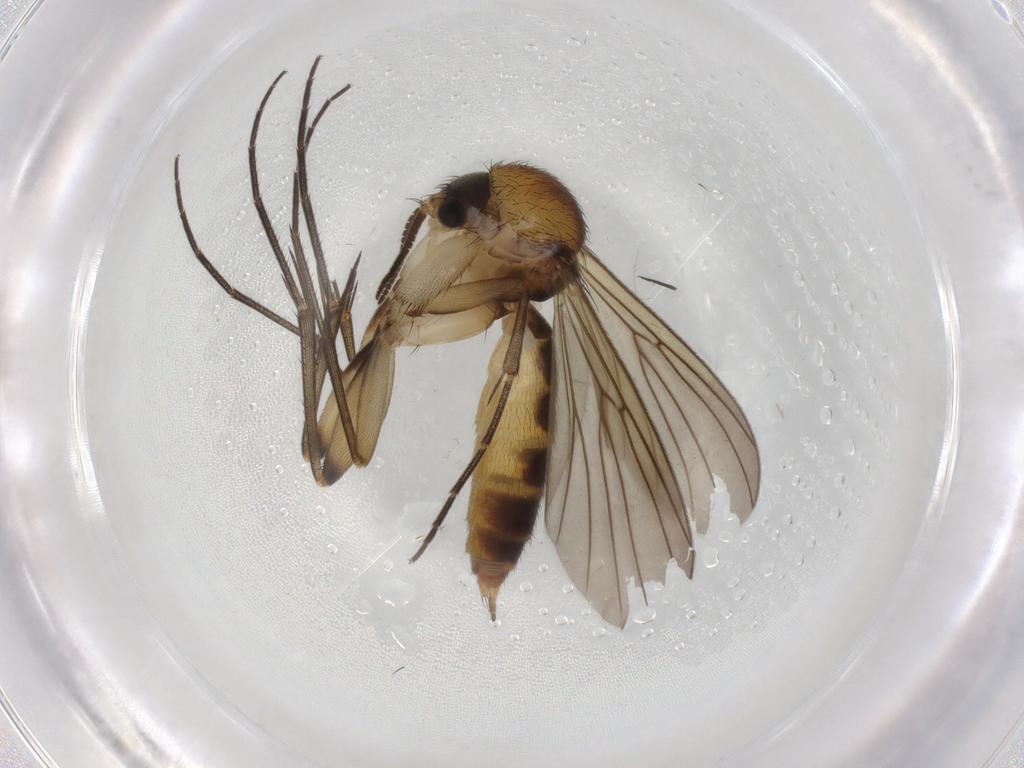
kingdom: Animalia
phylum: Arthropoda
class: Insecta
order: Diptera
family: Mycetophilidae
